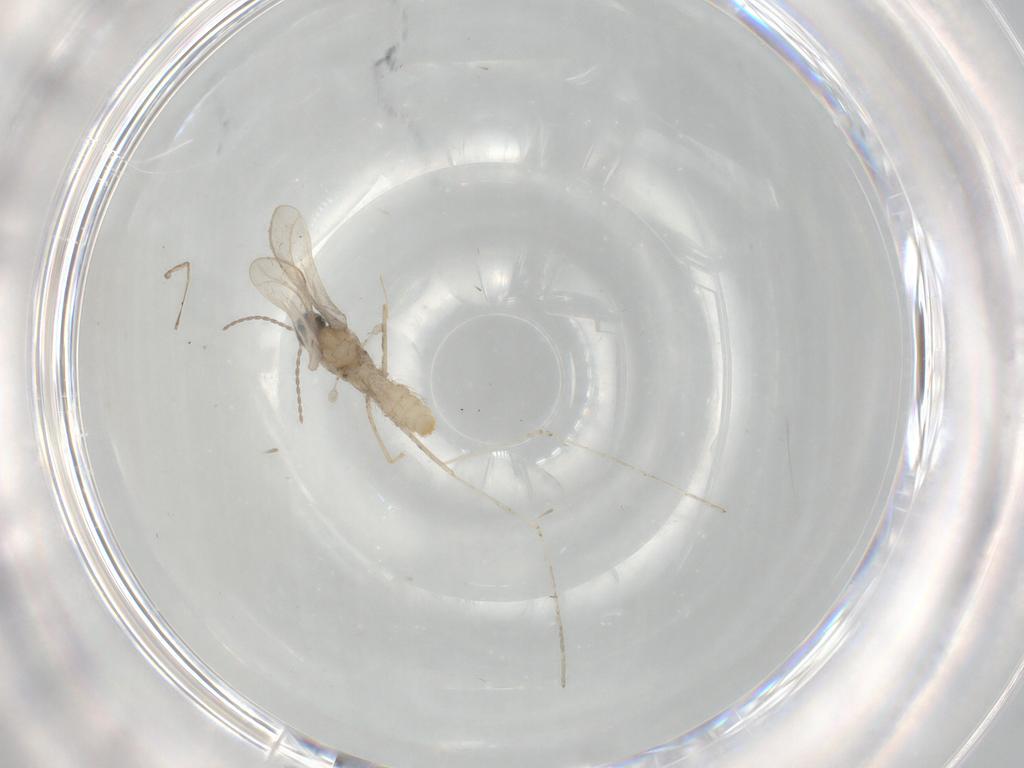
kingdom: Animalia
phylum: Arthropoda
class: Insecta
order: Diptera
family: Cecidomyiidae
